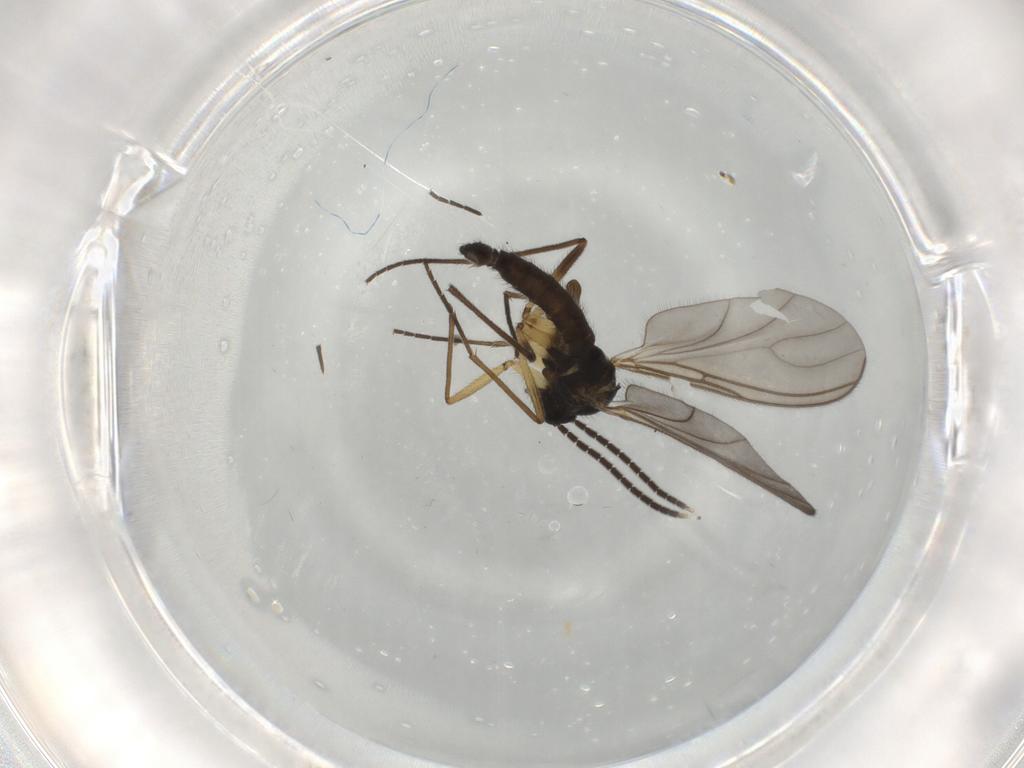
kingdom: Animalia
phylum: Arthropoda
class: Insecta
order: Diptera
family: Sciaridae
